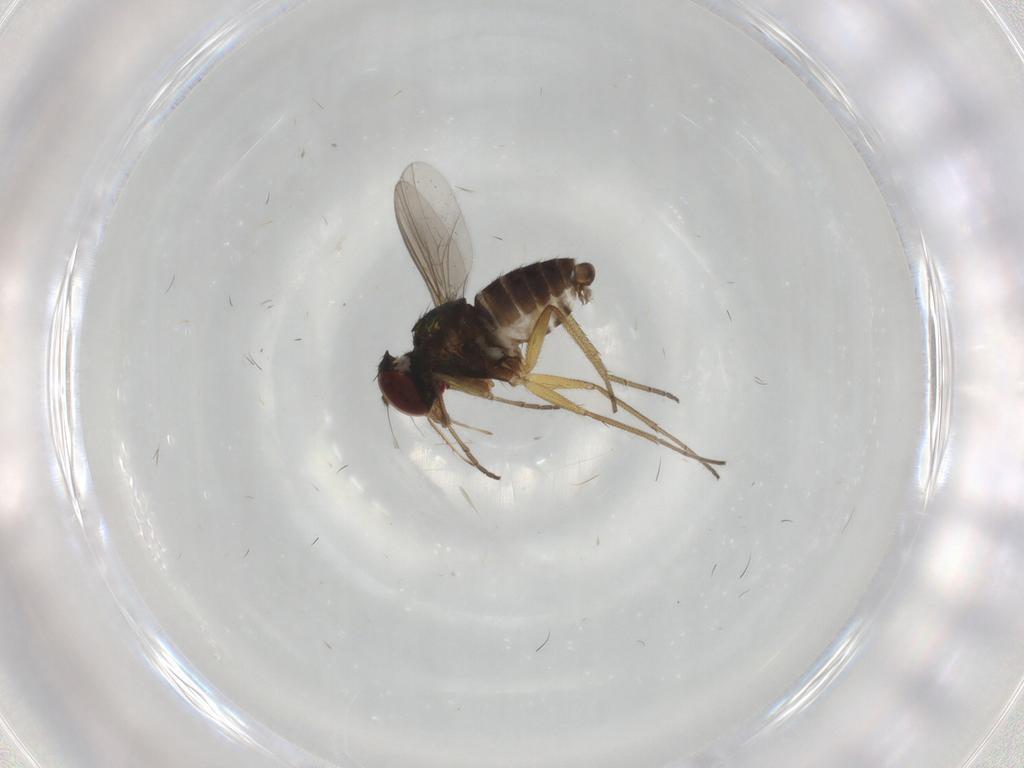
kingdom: Animalia
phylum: Arthropoda
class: Insecta
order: Diptera
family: Dolichopodidae
